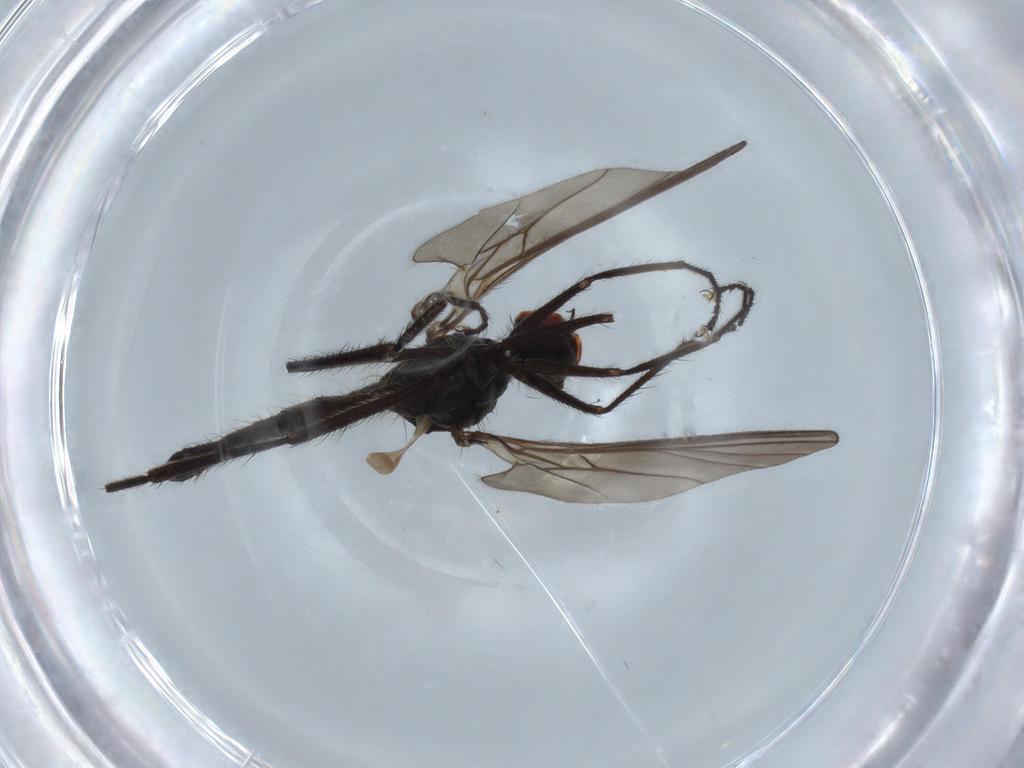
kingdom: Animalia
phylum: Arthropoda
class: Insecta
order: Diptera
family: Hybotidae
